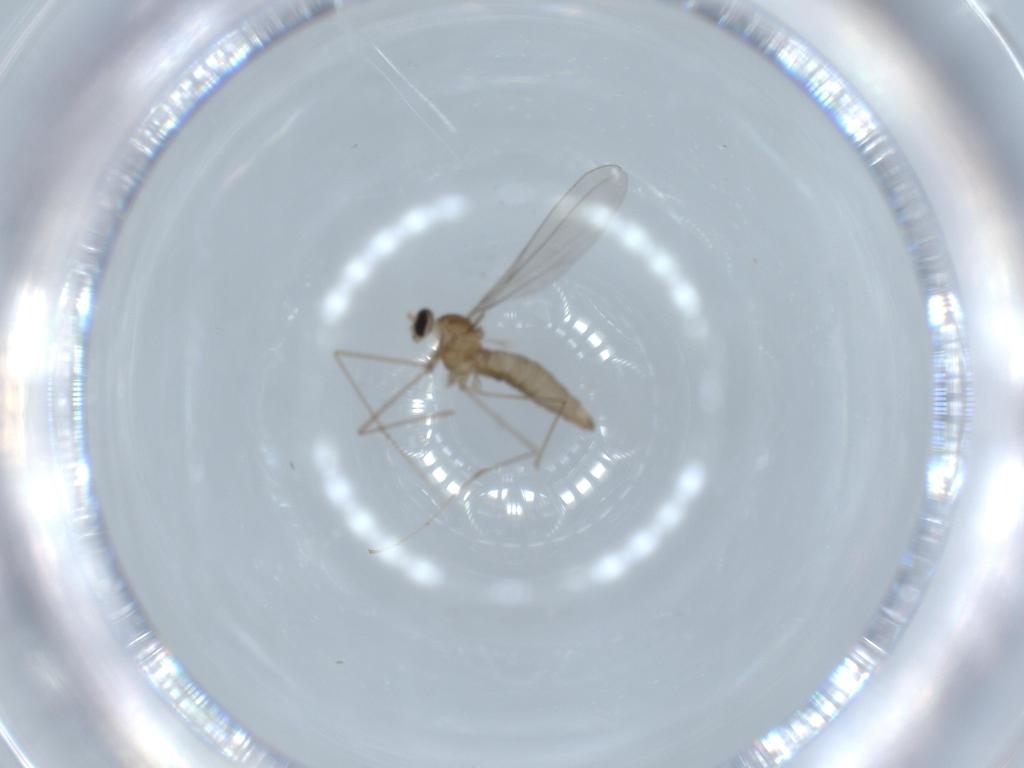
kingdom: Animalia
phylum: Arthropoda
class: Insecta
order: Diptera
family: Cecidomyiidae
